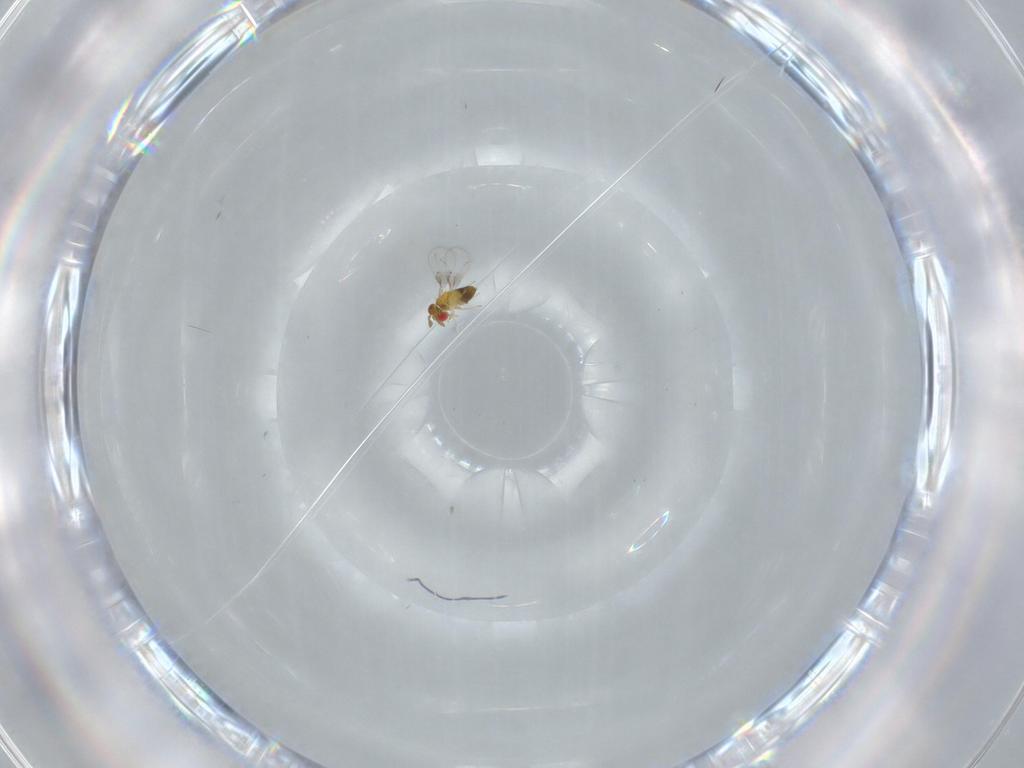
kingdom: Animalia
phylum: Arthropoda
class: Insecta
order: Hymenoptera
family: Trichogrammatidae
